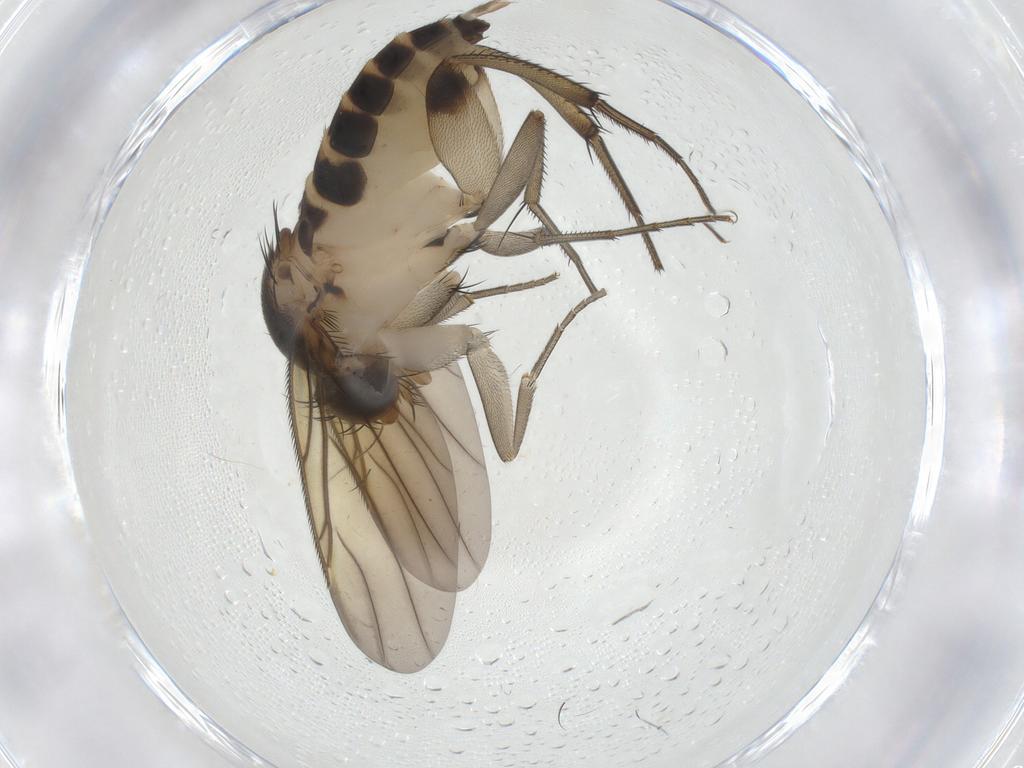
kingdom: Animalia
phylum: Arthropoda
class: Insecta
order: Diptera
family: Phoridae
